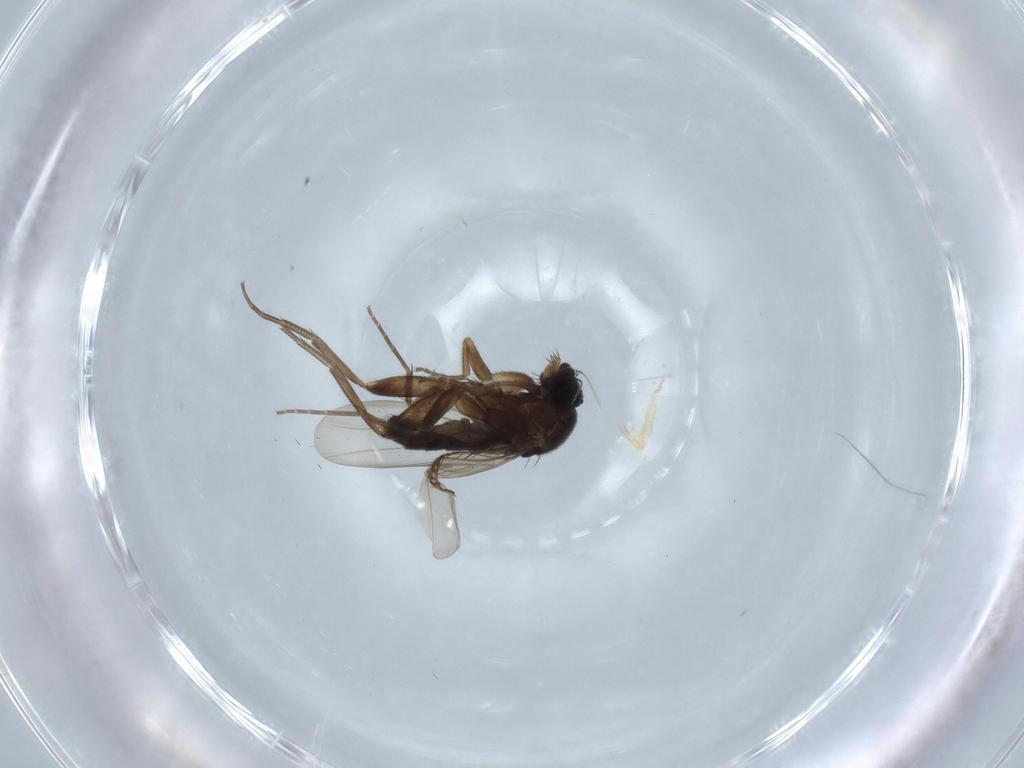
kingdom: Animalia
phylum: Arthropoda
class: Insecta
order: Diptera
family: Phoridae
